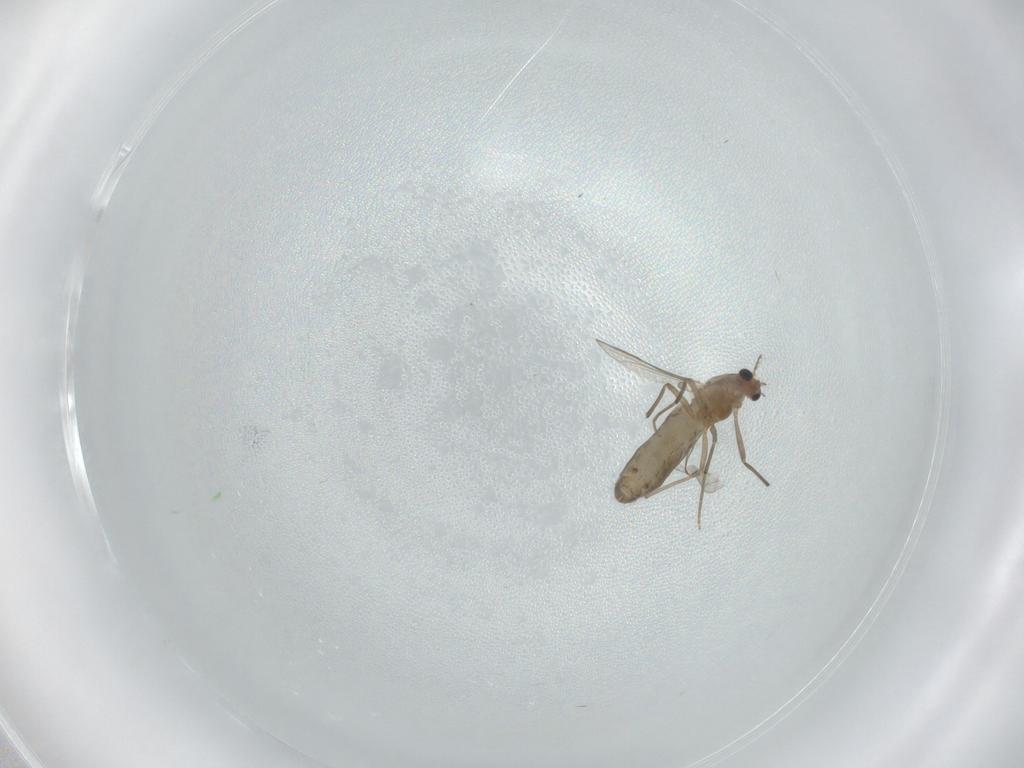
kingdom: Animalia
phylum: Arthropoda
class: Insecta
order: Diptera
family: Chironomidae
